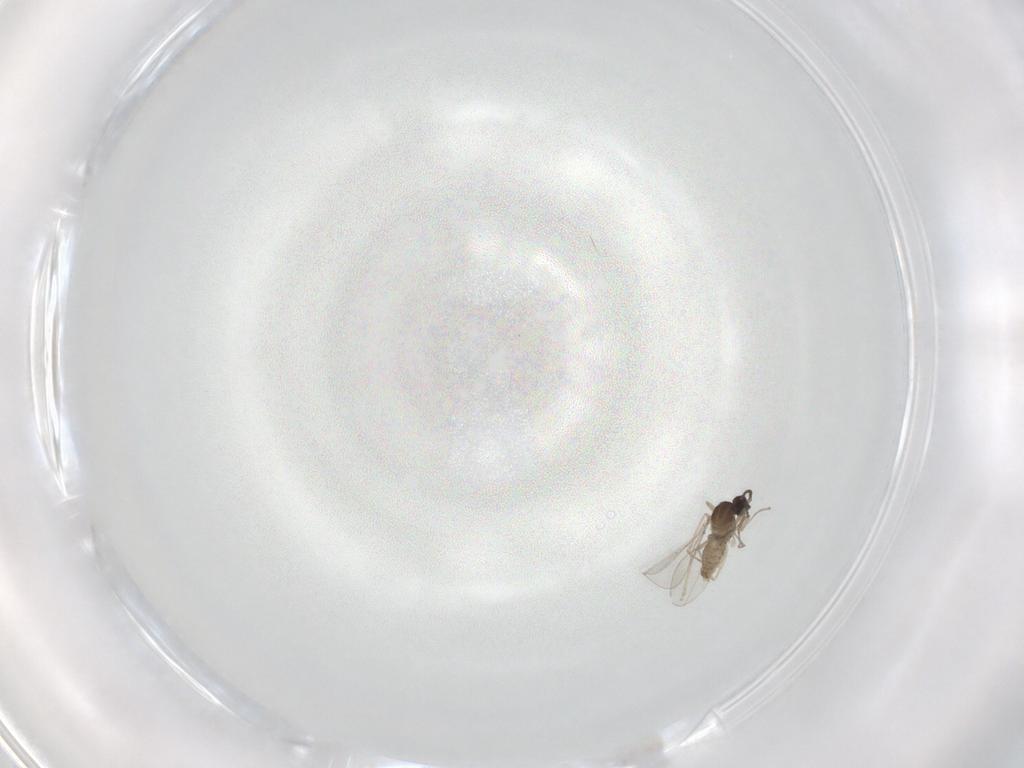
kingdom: Animalia
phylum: Arthropoda
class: Insecta
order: Diptera
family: Cecidomyiidae
